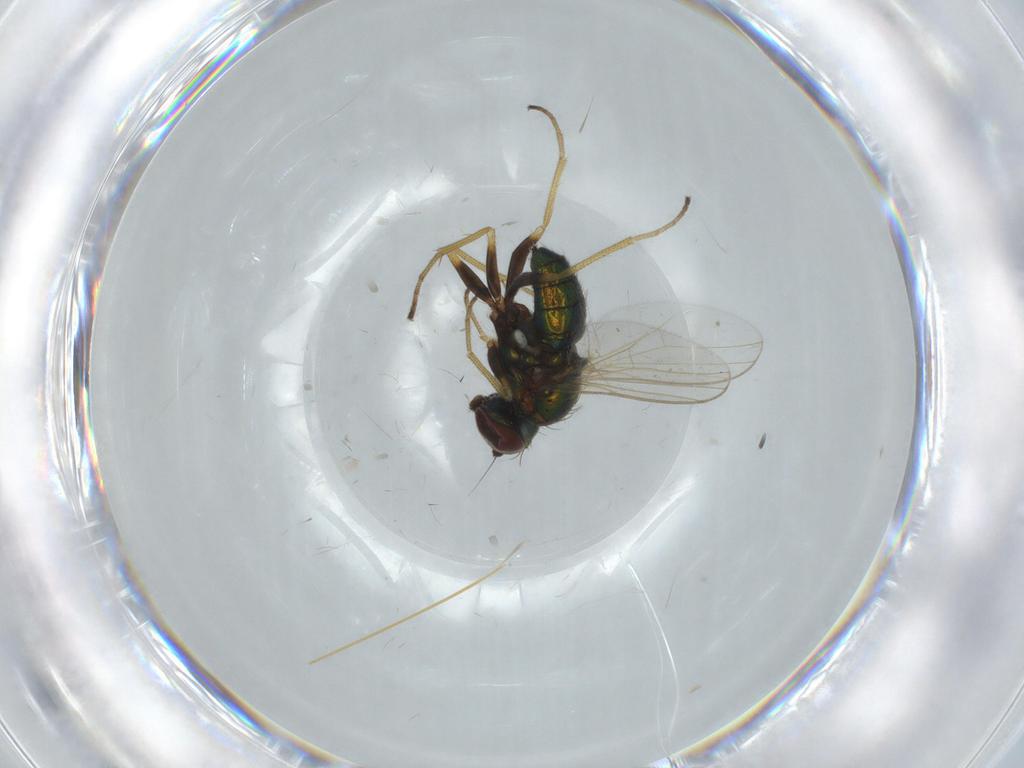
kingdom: Animalia
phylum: Arthropoda
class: Insecta
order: Diptera
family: Dolichopodidae
